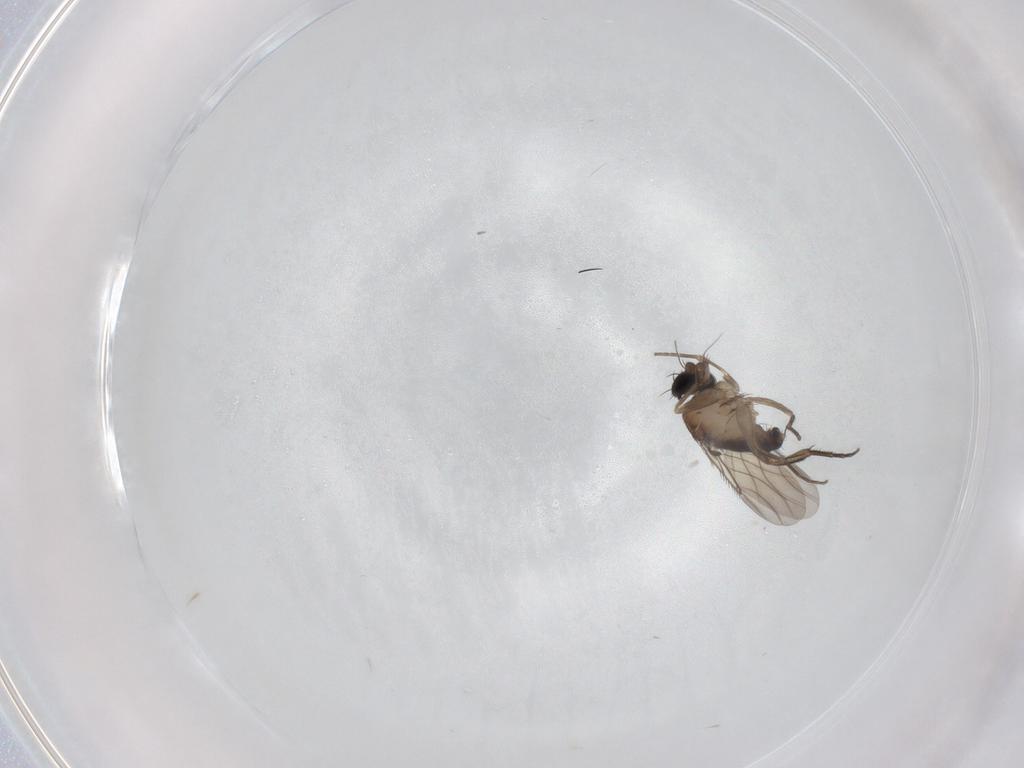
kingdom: Animalia
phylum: Arthropoda
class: Insecta
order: Diptera
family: Phoridae
